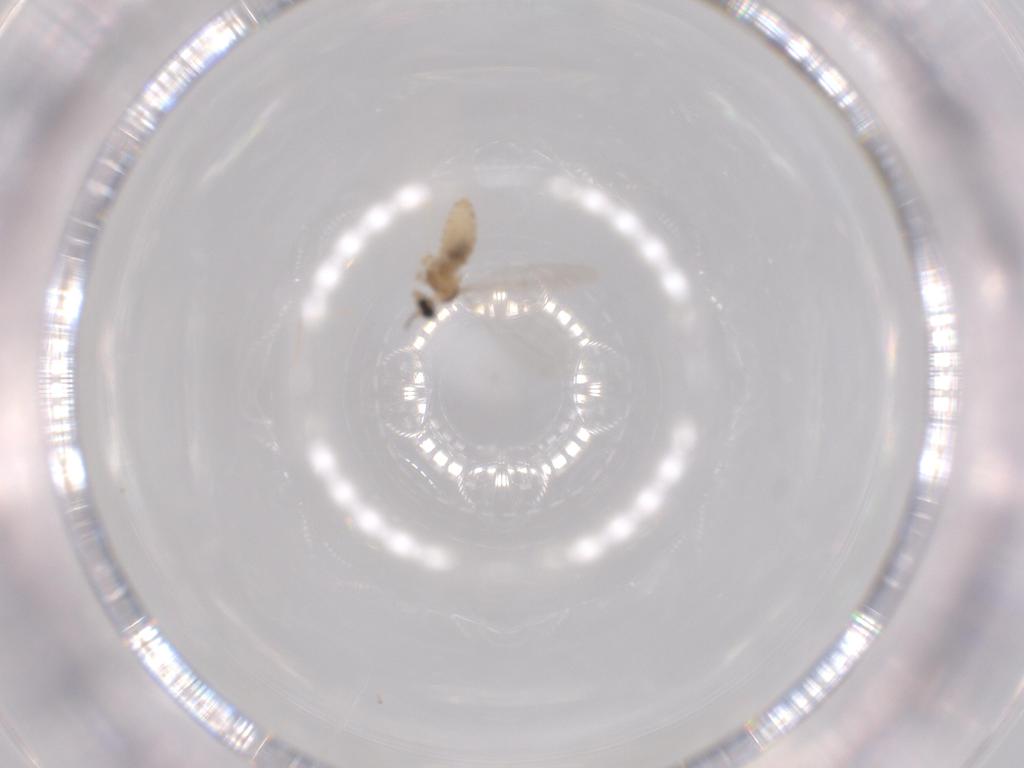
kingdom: Animalia
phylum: Arthropoda
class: Insecta
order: Diptera
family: Cecidomyiidae
